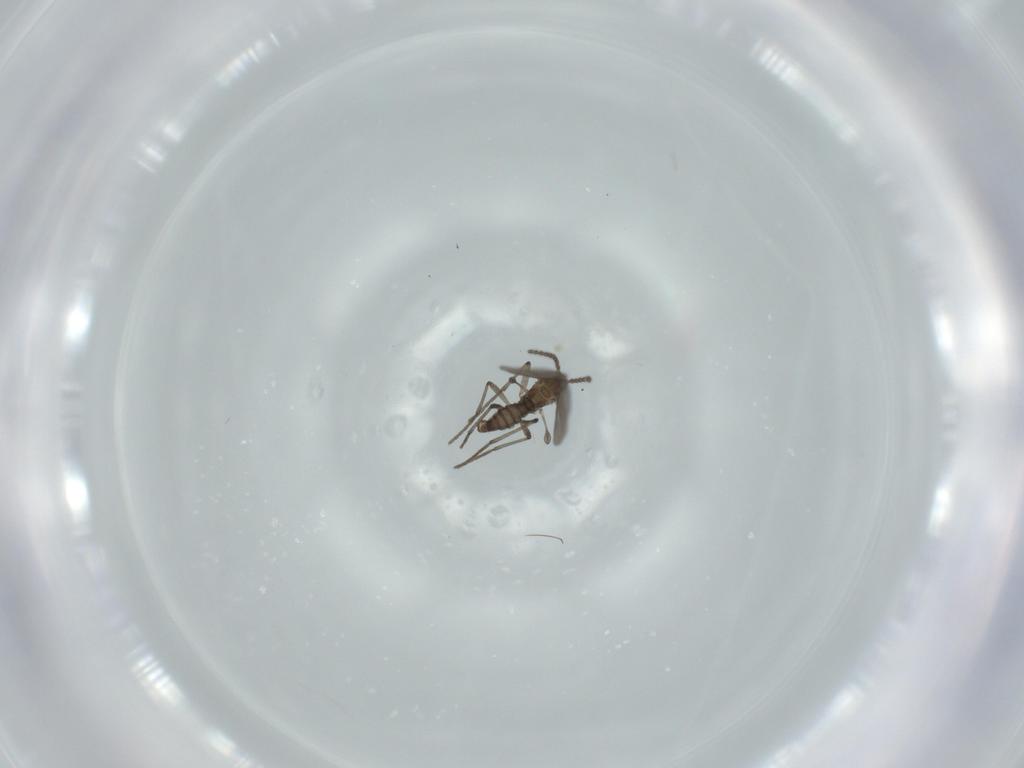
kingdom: Animalia
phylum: Arthropoda
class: Insecta
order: Diptera
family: Sciaridae
